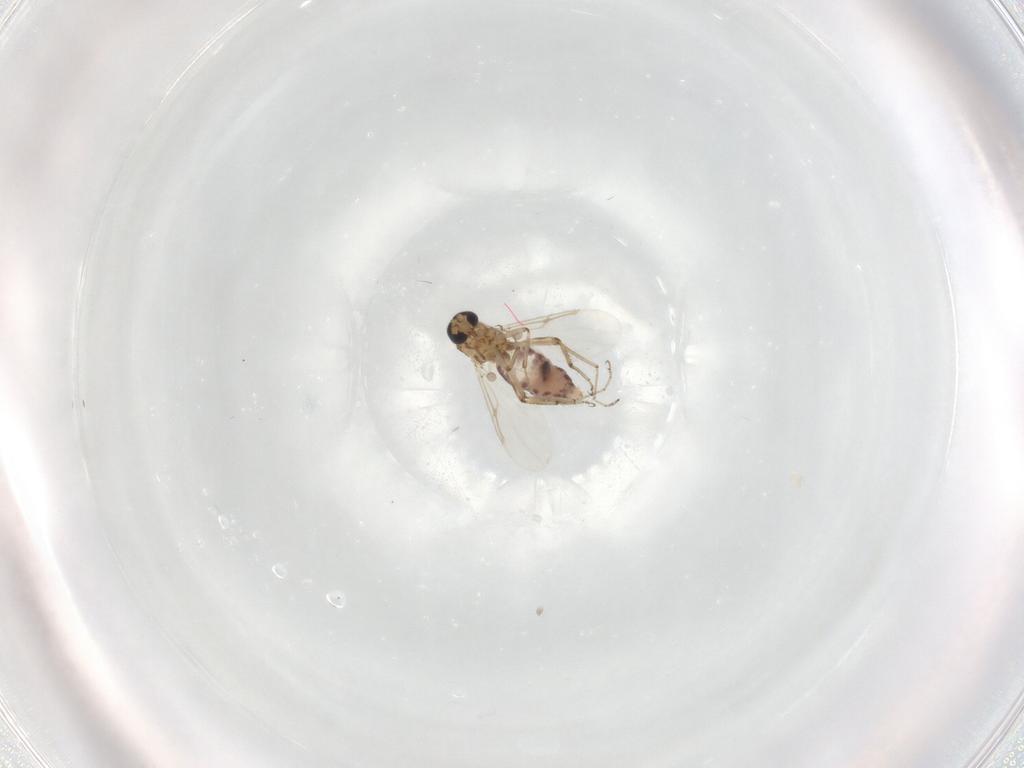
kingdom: Animalia
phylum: Arthropoda
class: Insecta
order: Diptera
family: Ceratopogonidae
